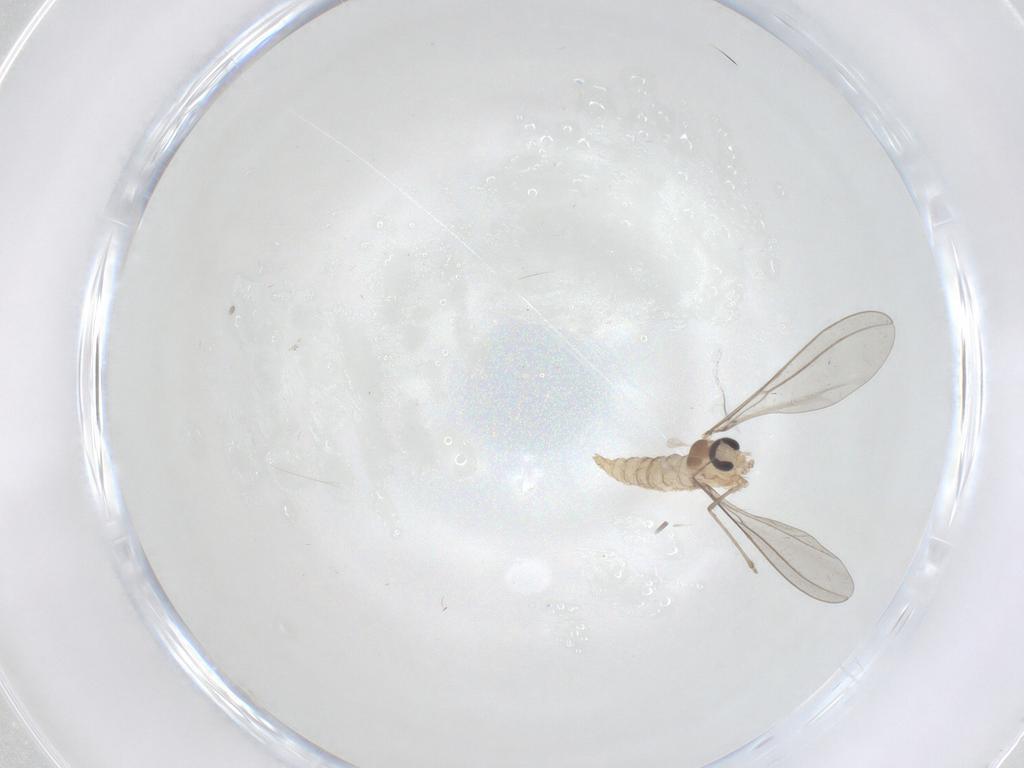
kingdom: Animalia
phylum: Arthropoda
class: Insecta
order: Diptera
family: Cecidomyiidae
